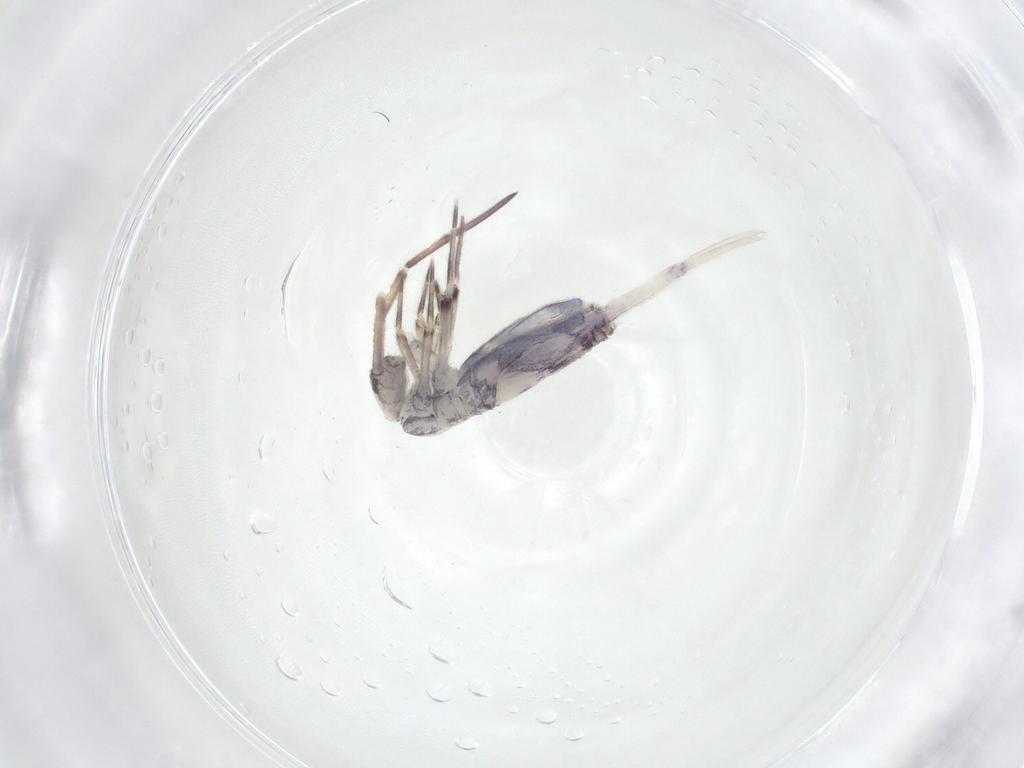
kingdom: Animalia
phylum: Arthropoda
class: Collembola
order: Entomobryomorpha
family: Entomobryidae
